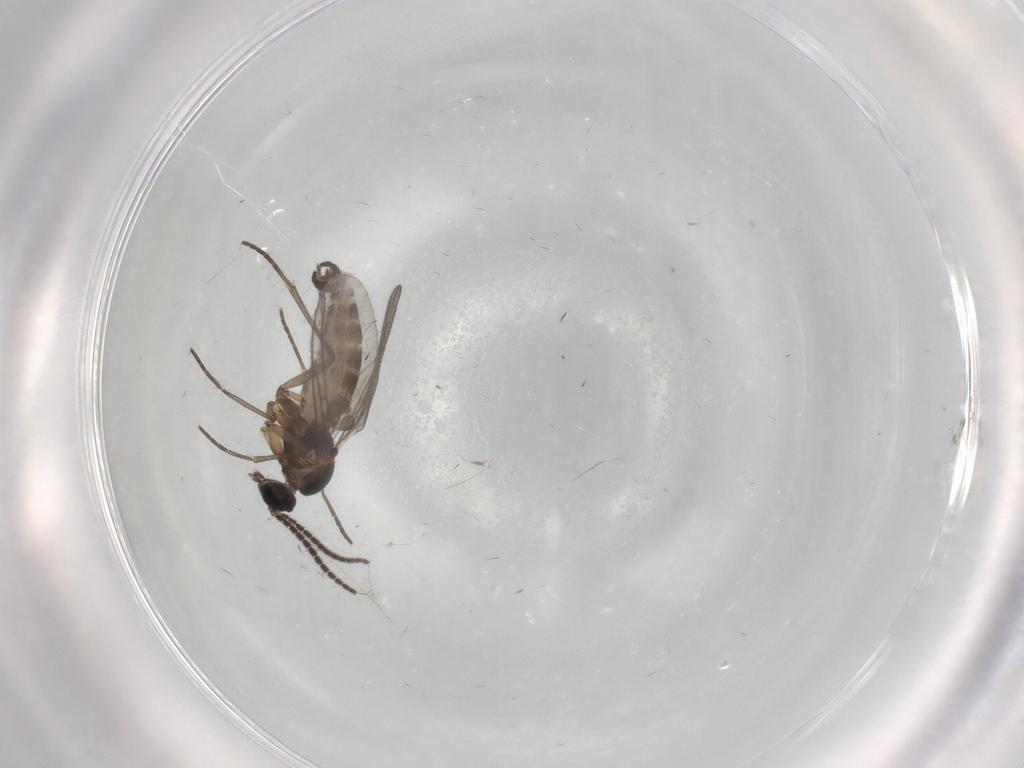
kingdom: Animalia
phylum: Arthropoda
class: Insecta
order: Diptera
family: Sciaridae
